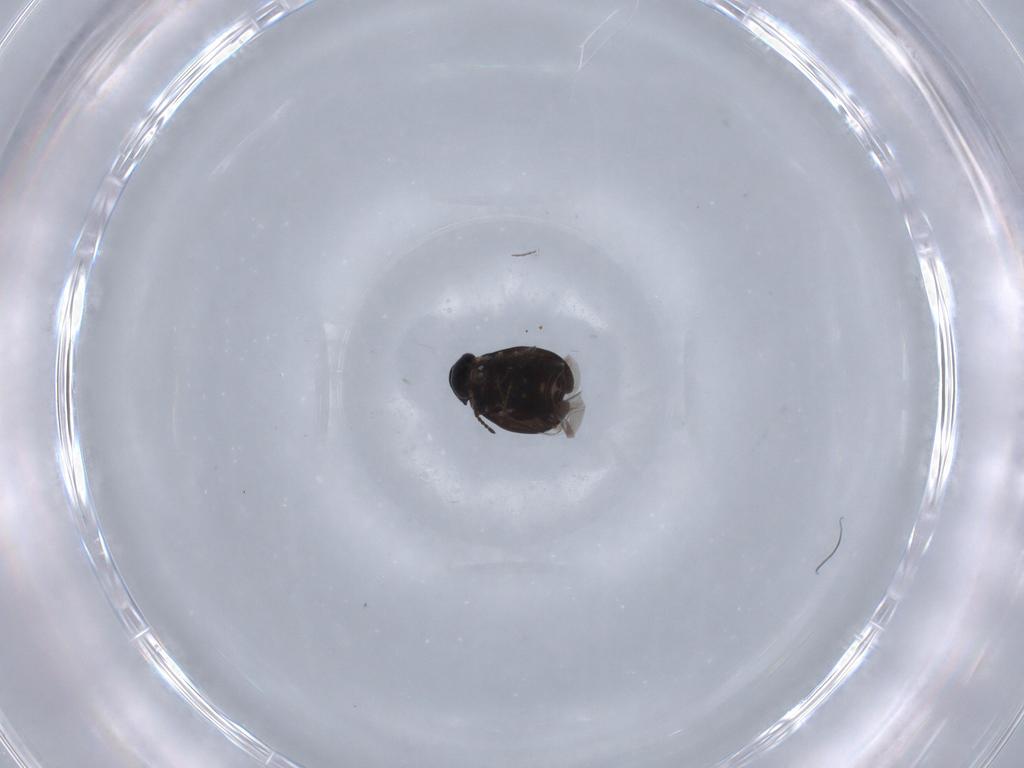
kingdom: Animalia
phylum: Arthropoda
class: Insecta
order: Coleoptera
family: Melyridae
